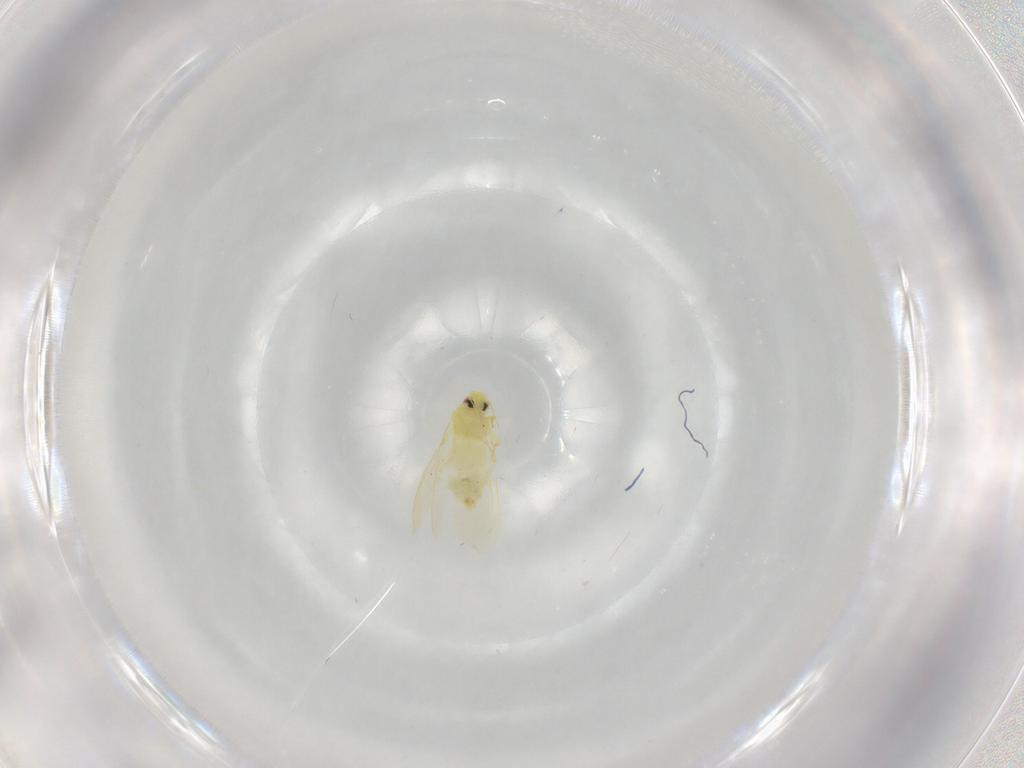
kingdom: Animalia
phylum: Arthropoda
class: Insecta
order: Hemiptera
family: Aleyrodidae
